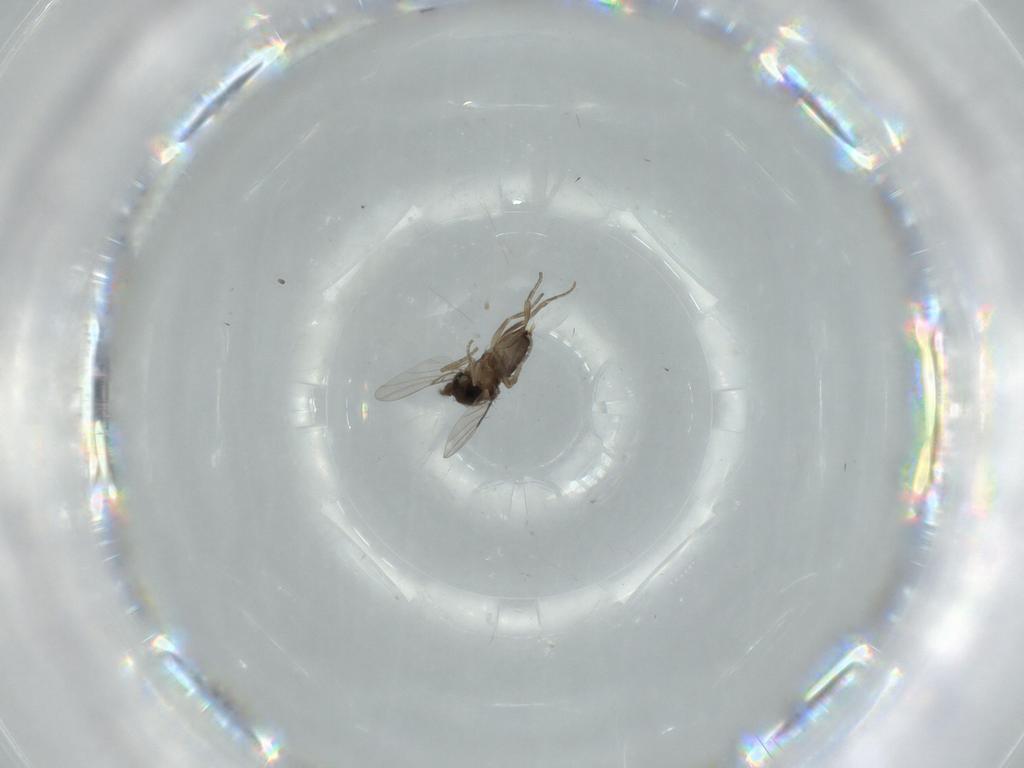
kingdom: Animalia
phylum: Arthropoda
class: Insecta
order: Diptera
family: Phoridae
